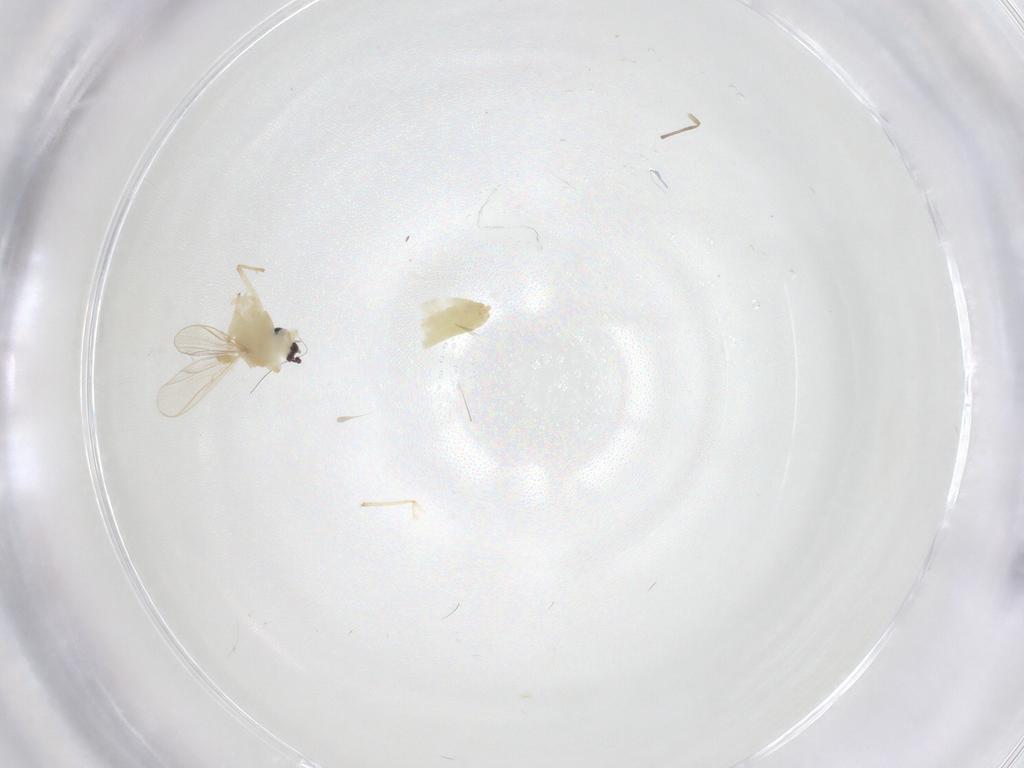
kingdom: Animalia
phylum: Arthropoda
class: Insecta
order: Diptera
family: Chironomidae
